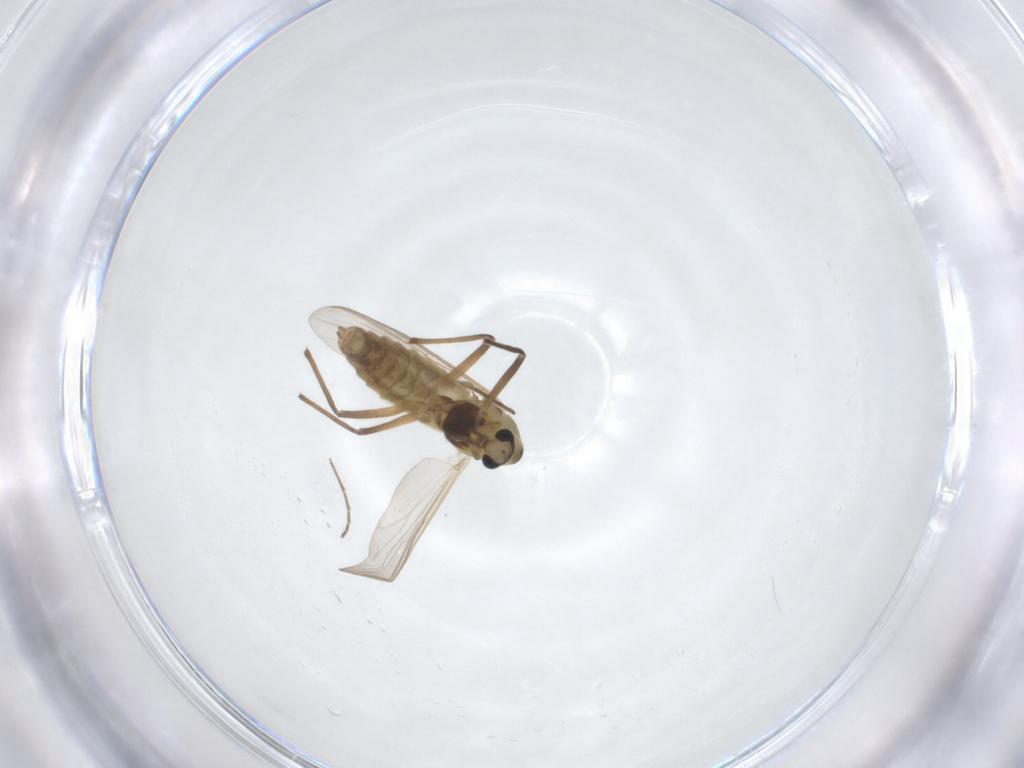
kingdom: Animalia
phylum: Arthropoda
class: Insecta
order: Diptera
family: Chironomidae
